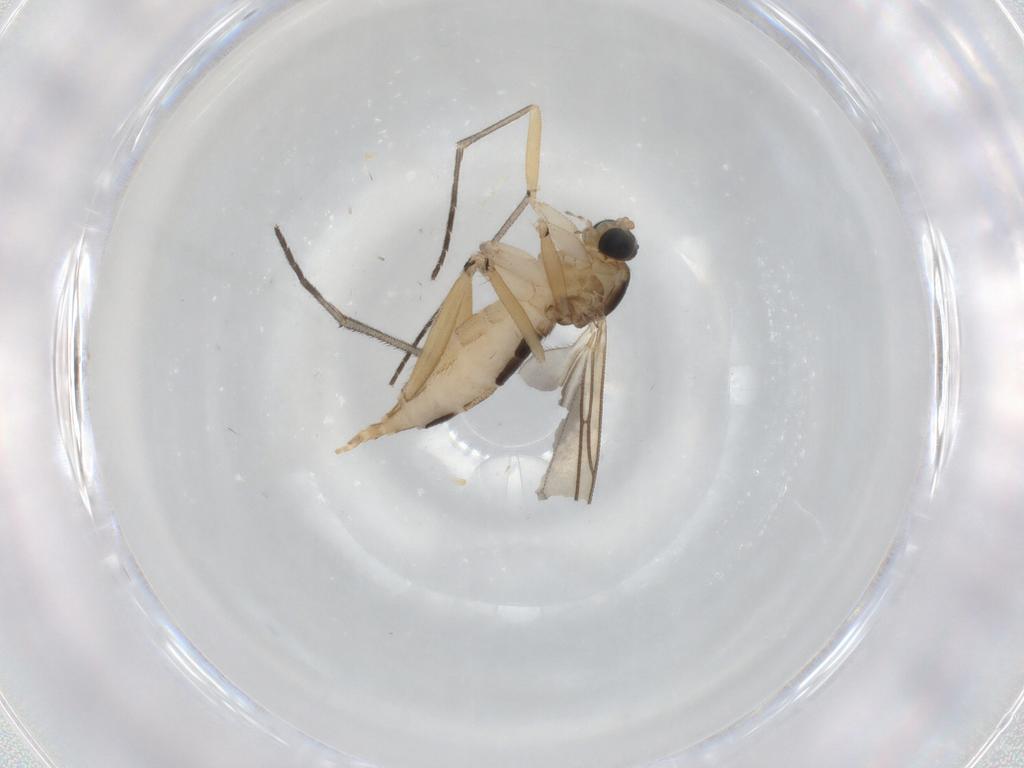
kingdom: Animalia
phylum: Arthropoda
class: Insecta
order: Diptera
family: Sciaridae
